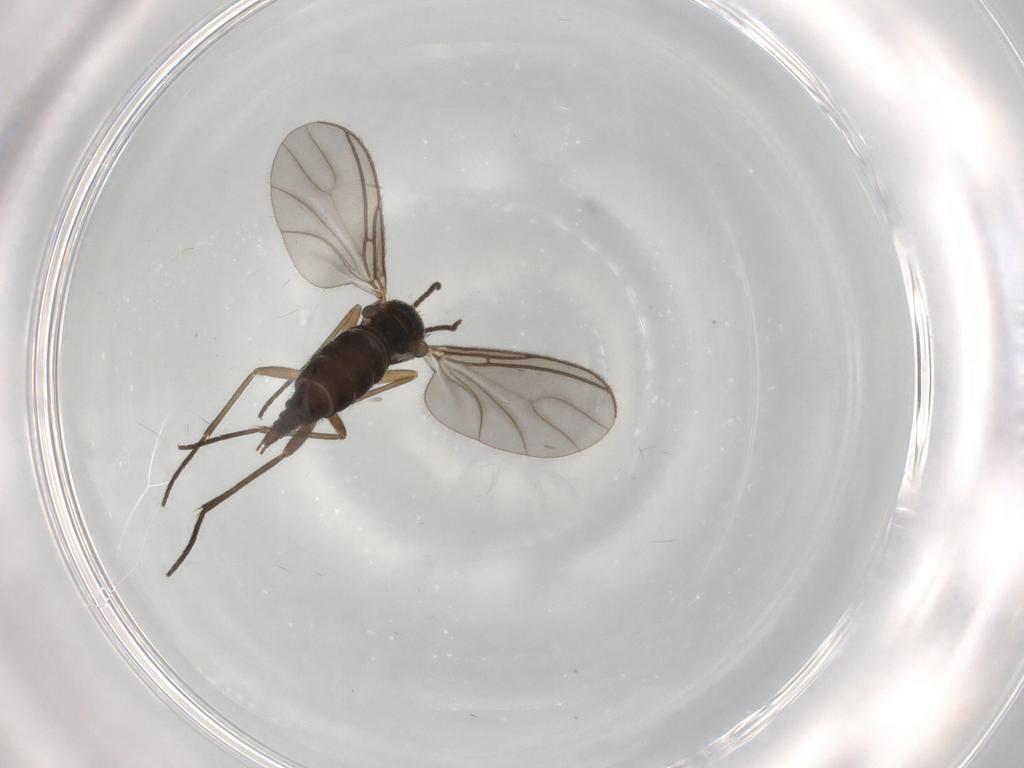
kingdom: Animalia
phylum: Arthropoda
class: Insecta
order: Diptera
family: Sciaridae
